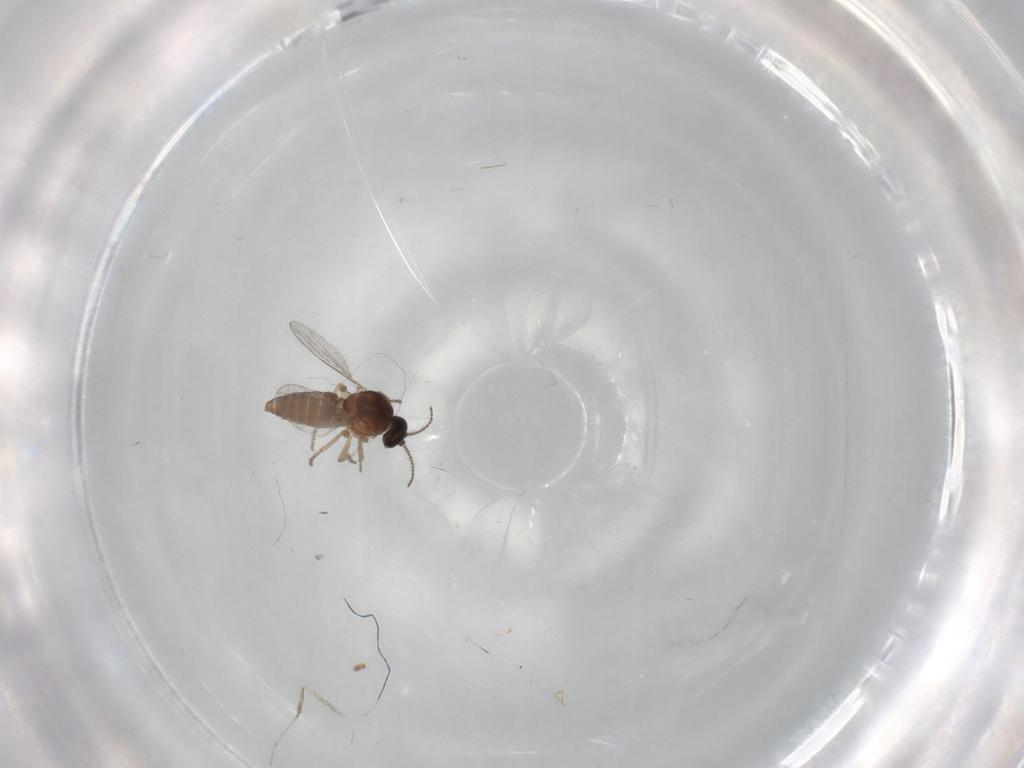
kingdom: Animalia
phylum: Arthropoda
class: Insecta
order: Diptera
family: Ceratopogonidae
